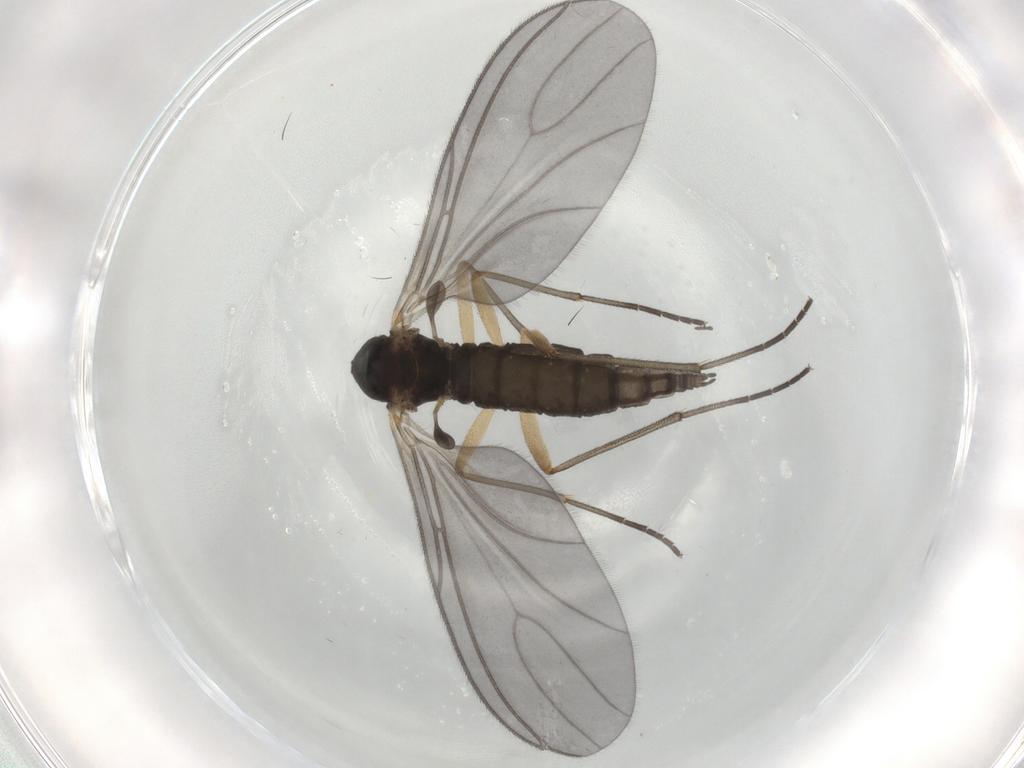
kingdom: Animalia
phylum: Arthropoda
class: Insecta
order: Diptera
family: Sciaridae
